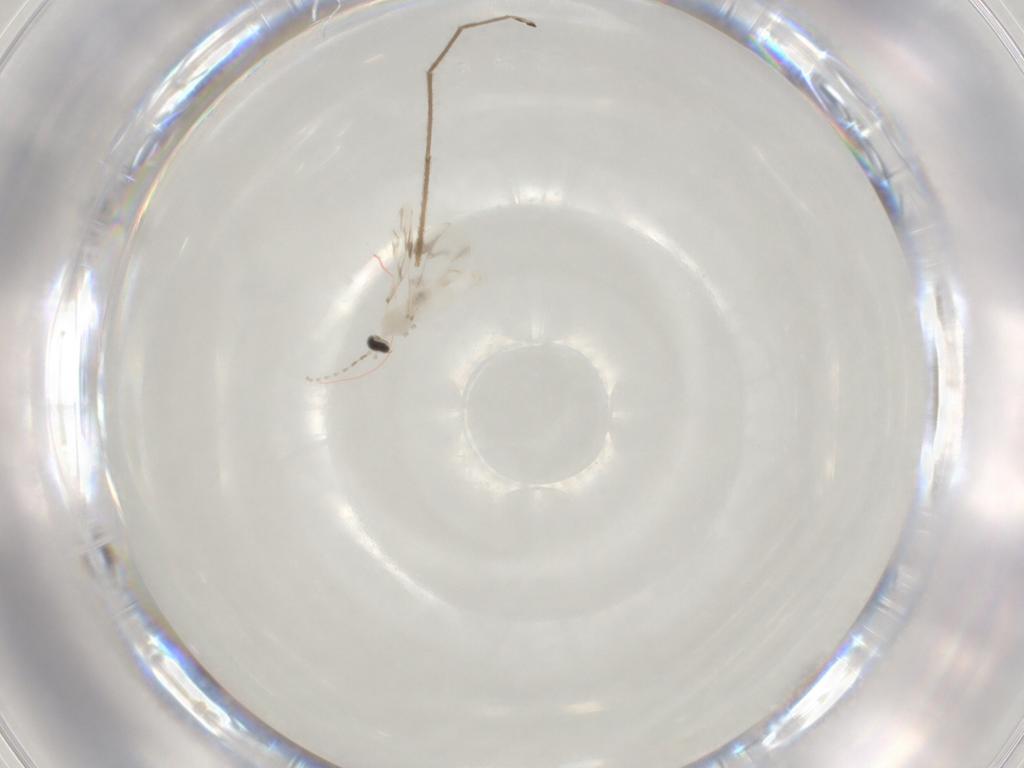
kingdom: Animalia
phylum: Arthropoda
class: Insecta
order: Diptera
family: Cecidomyiidae
